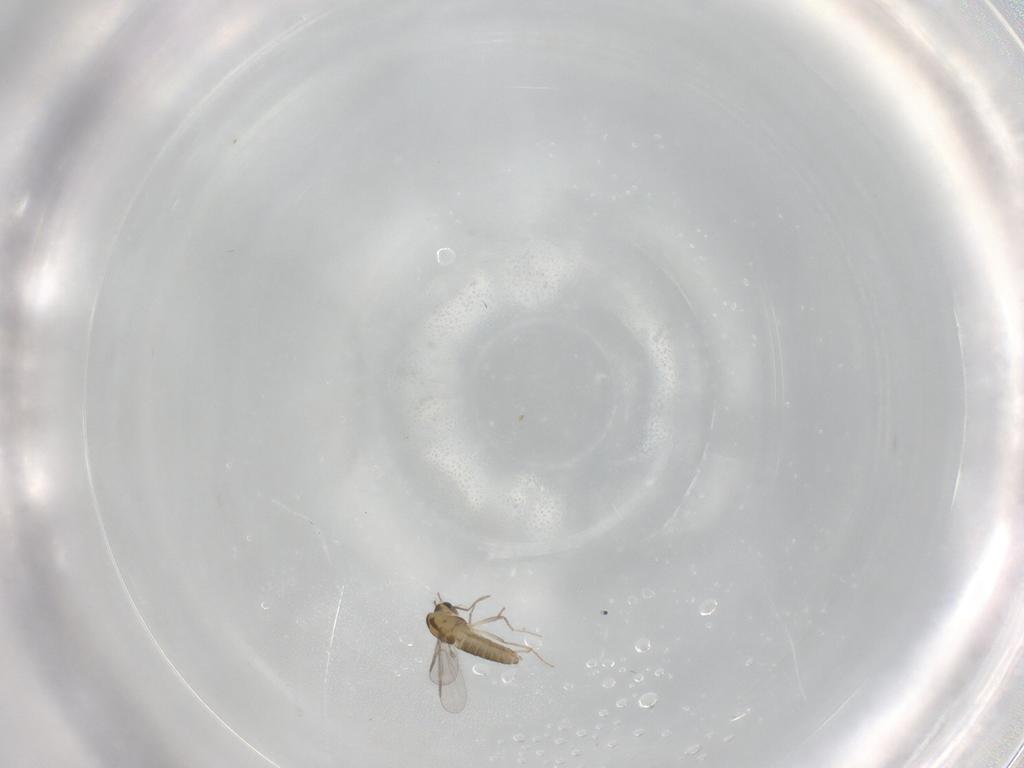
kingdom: Animalia
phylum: Arthropoda
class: Insecta
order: Diptera
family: Chironomidae
